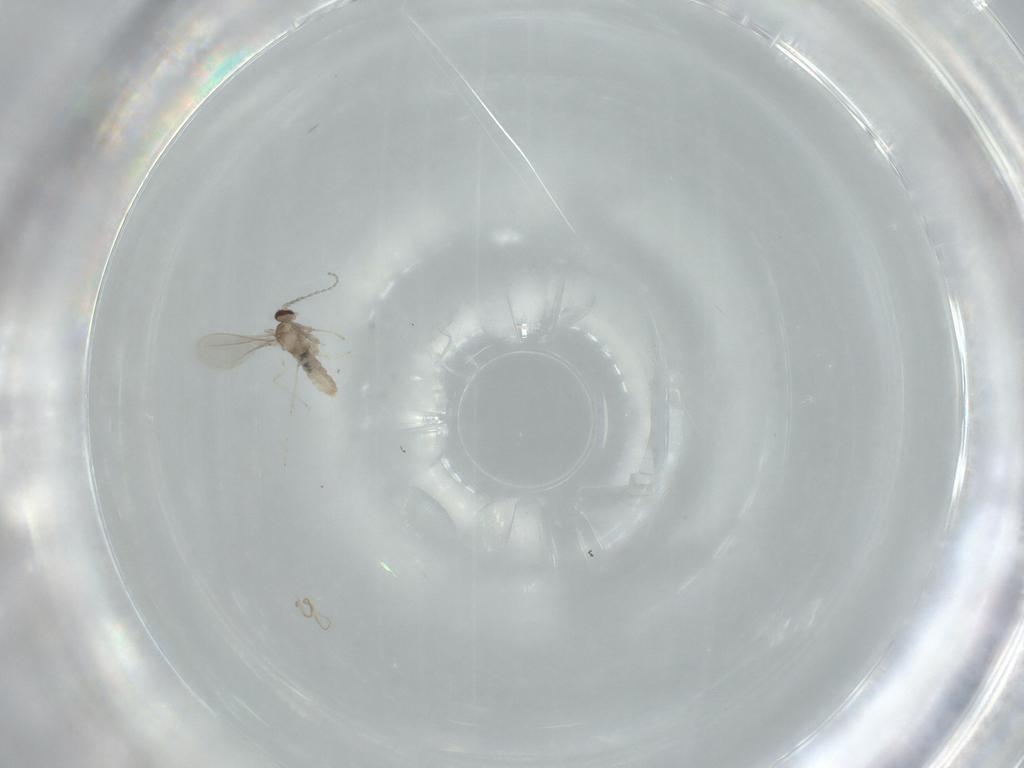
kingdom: Animalia
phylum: Arthropoda
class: Insecta
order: Diptera
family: Cecidomyiidae
